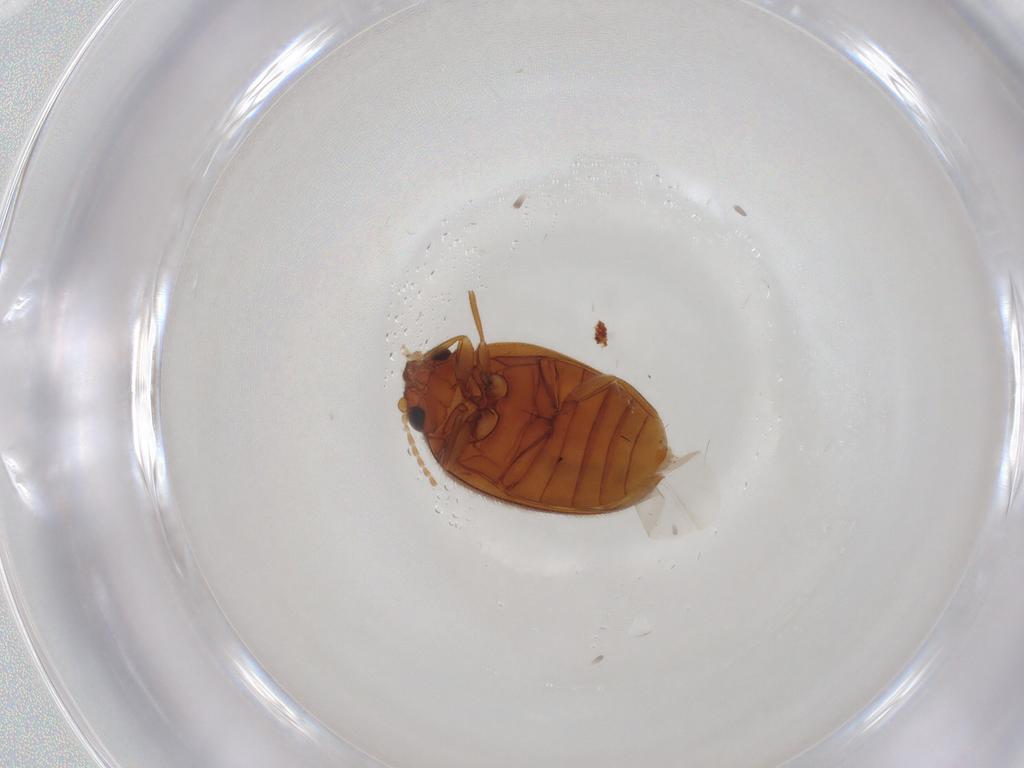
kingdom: Animalia
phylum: Arthropoda
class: Insecta
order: Coleoptera
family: Scirtidae
